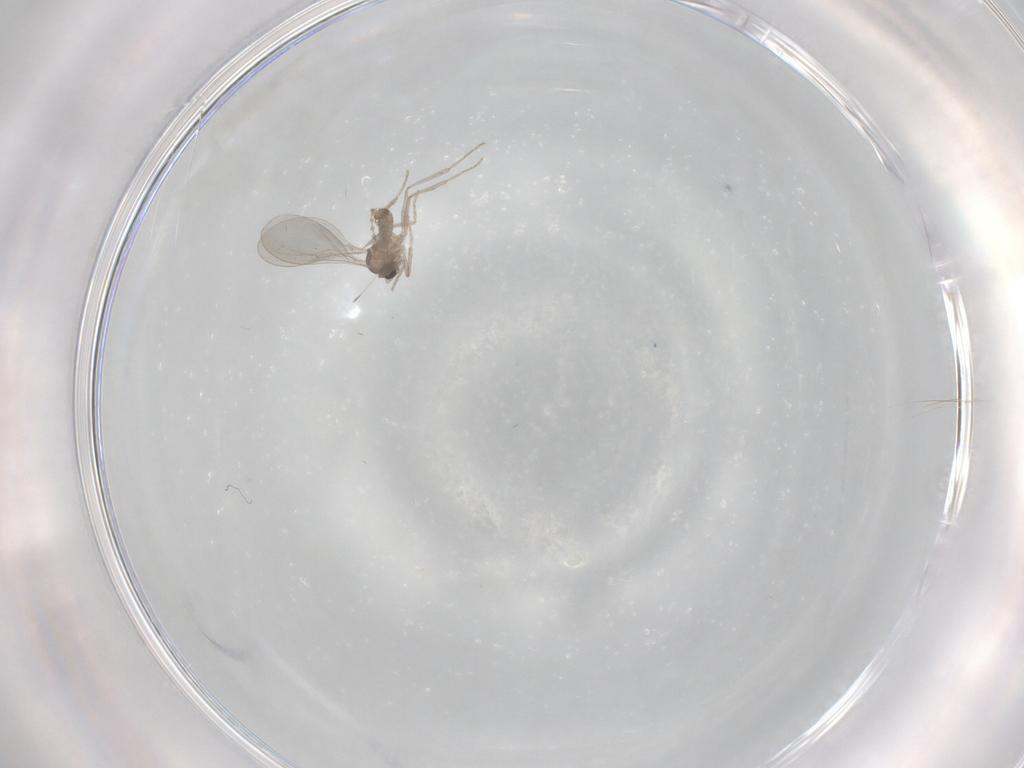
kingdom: Animalia
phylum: Arthropoda
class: Insecta
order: Diptera
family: Cecidomyiidae
